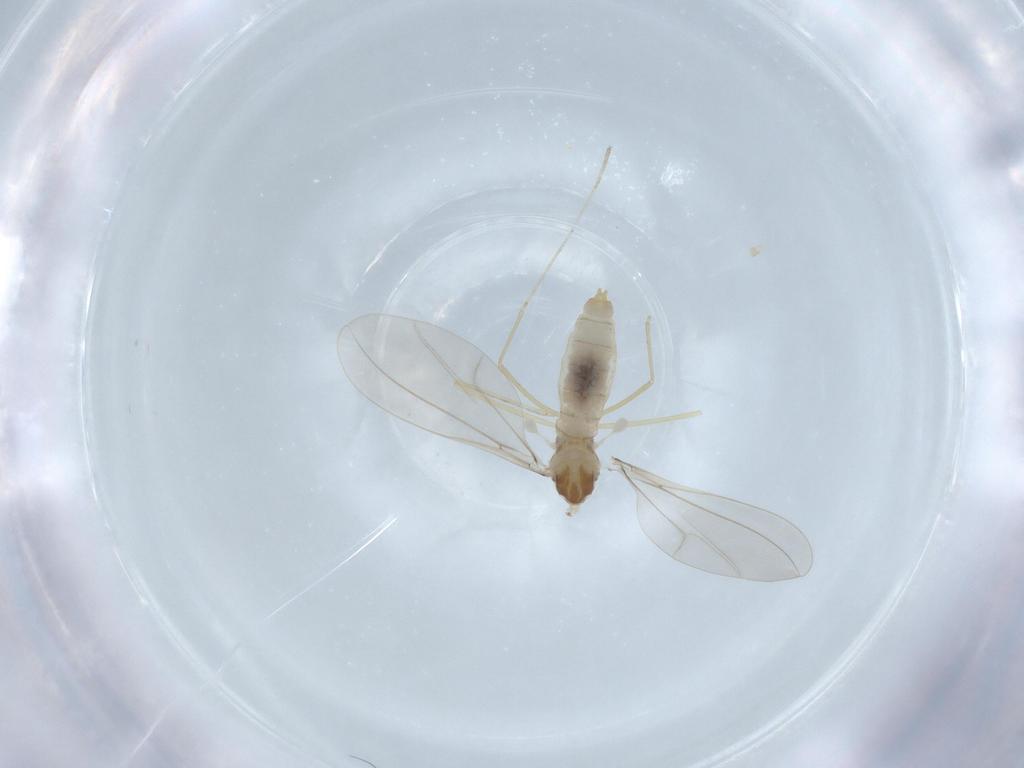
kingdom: Animalia
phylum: Arthropoda
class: Insecta
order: Diptera
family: Cecidomyiidae
